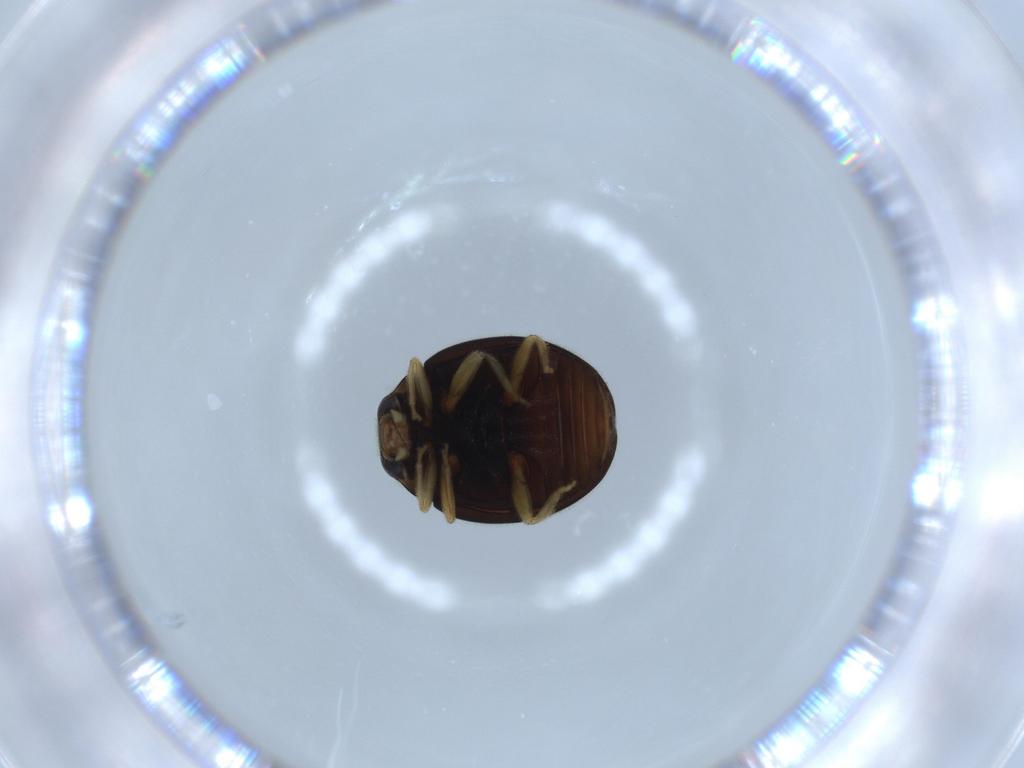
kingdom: Animalia
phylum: Arthropoda
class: Insecta
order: Coleoptera
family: Coccinellidae
